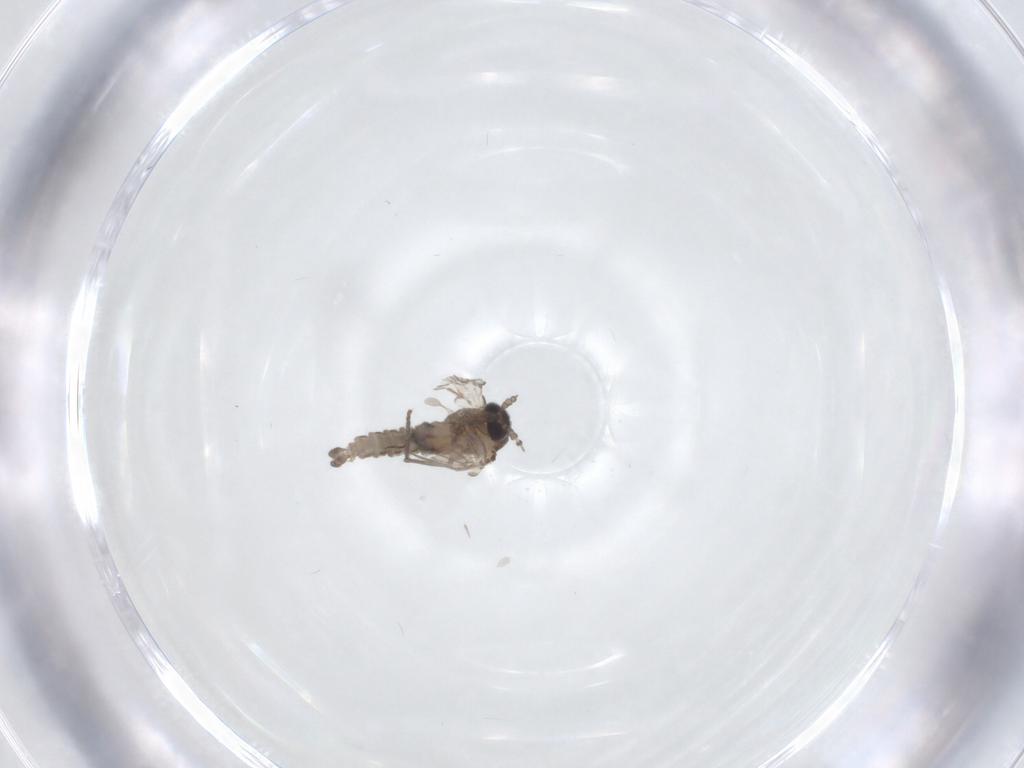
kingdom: Animalia
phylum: Arthropoda
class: Insecta
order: Diptera
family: Psychodidae
